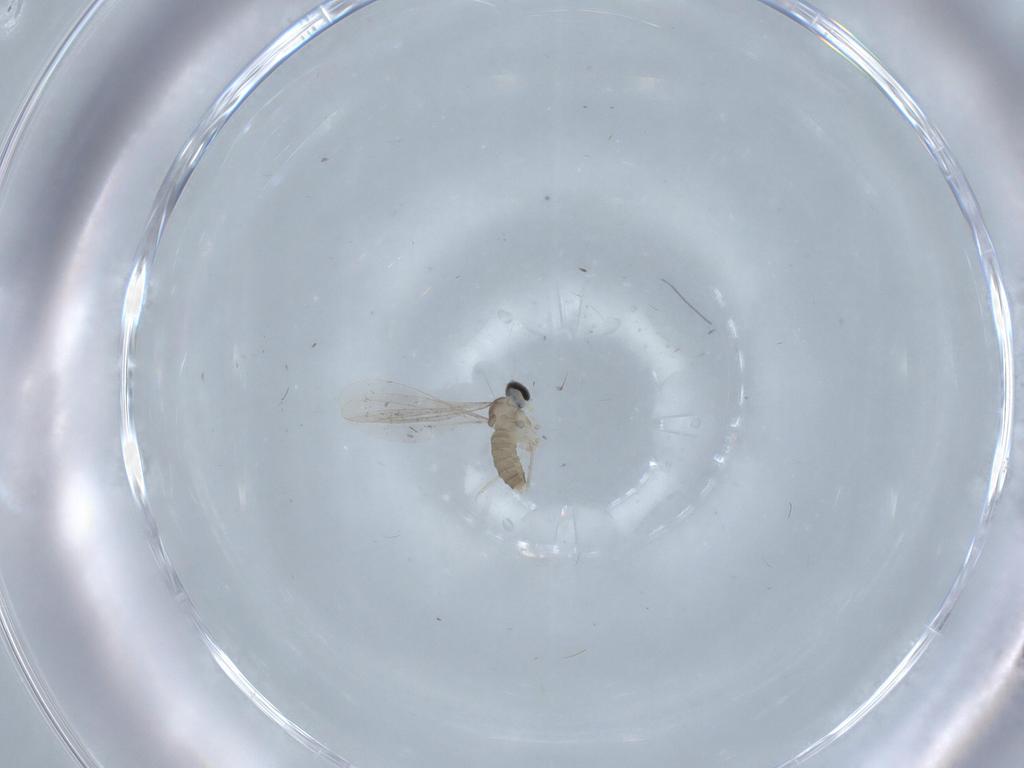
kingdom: Animalia
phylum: Arthropoda
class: Insecta
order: Diptera
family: Cecidomyiidae
